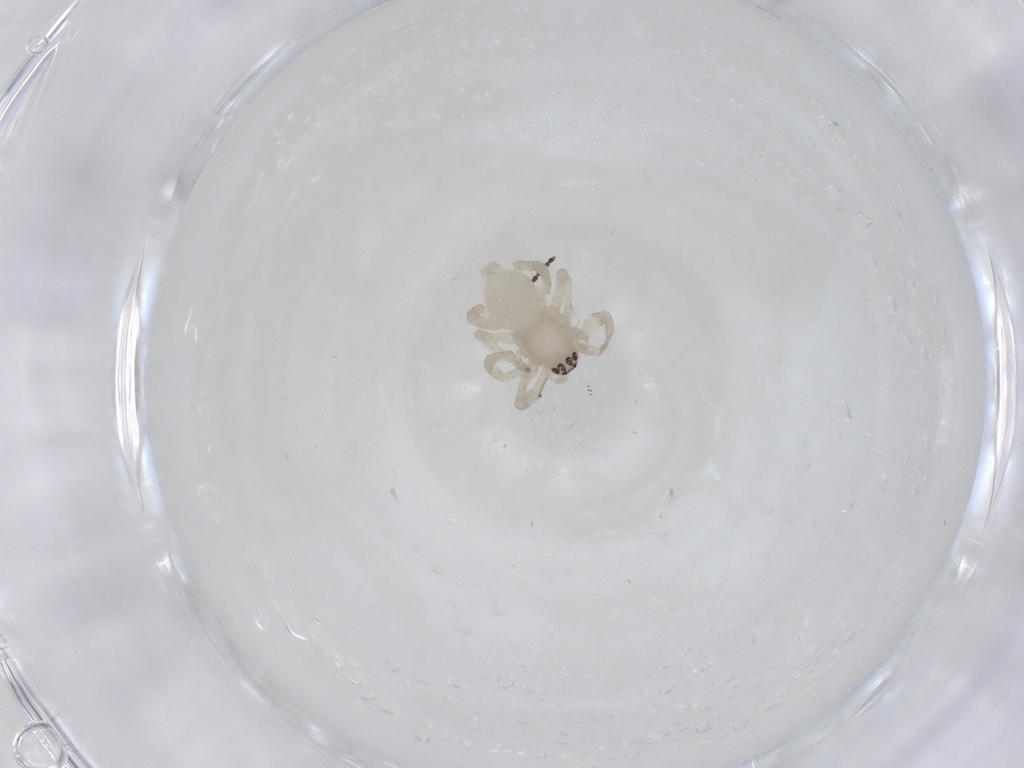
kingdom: Animalia
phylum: Arthropoda
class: Arachnida
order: Araneae
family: Anyphaenidae
